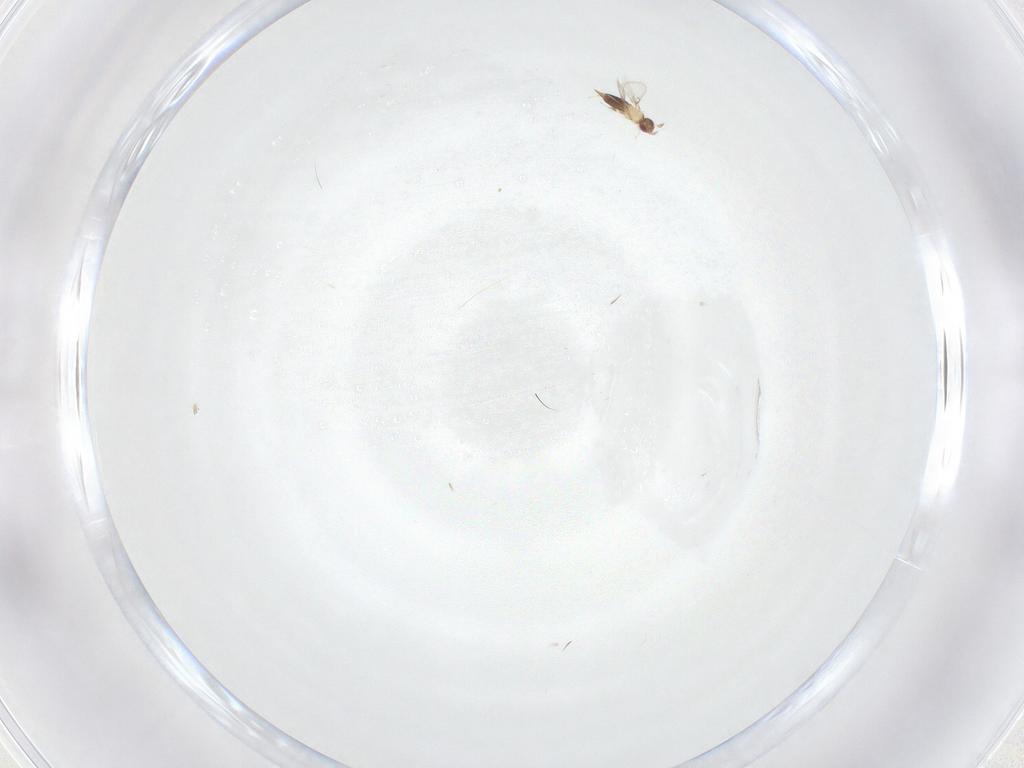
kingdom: Animalia
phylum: Arthropoda
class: Insecta
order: Hymenoptera
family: Trichogrammatidae
